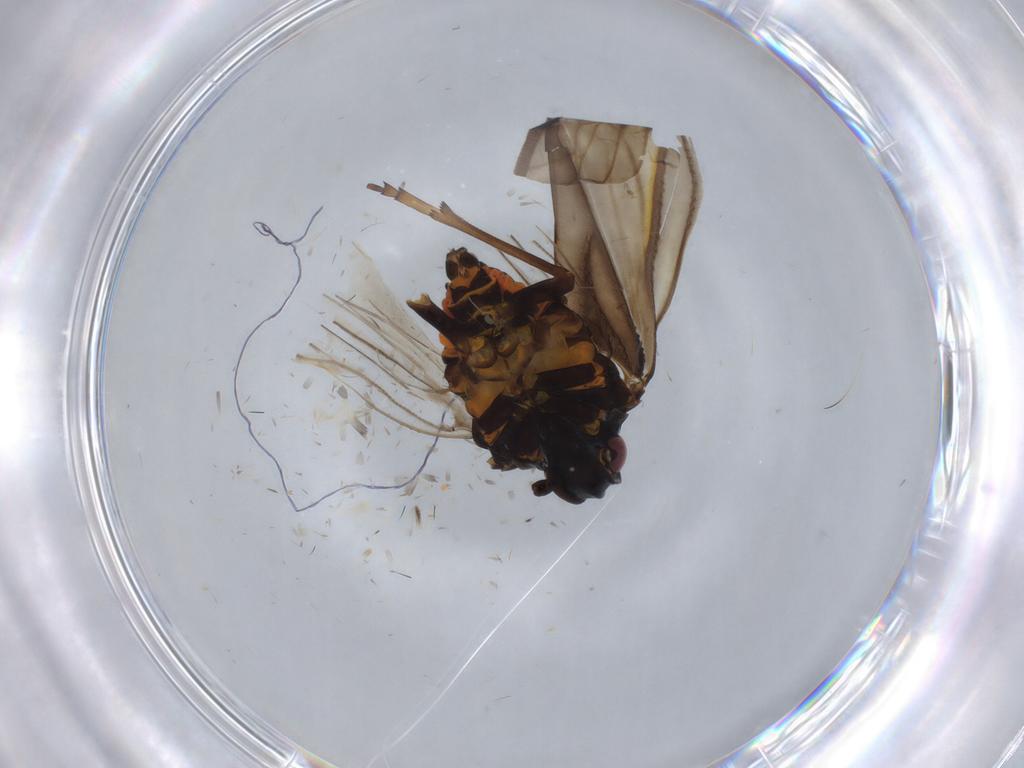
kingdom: Animalia
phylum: Arthropoda
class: Insecta
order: Hemiptera
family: Meenoplidae
